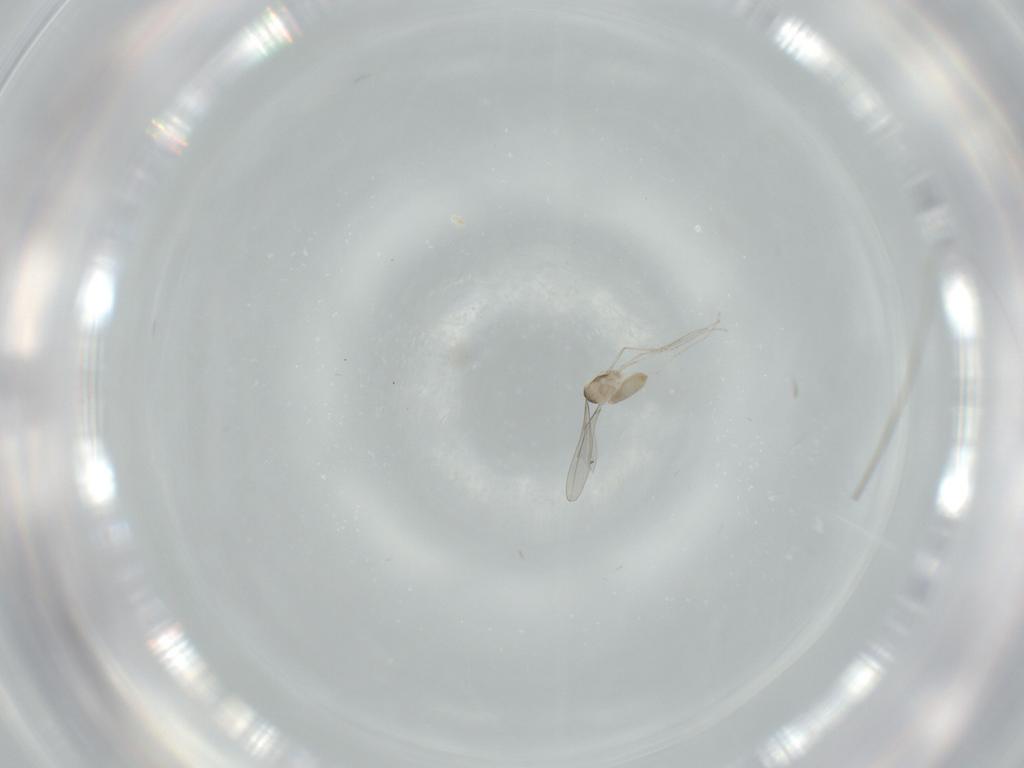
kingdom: Animalia
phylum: Arthropoda
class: Insecta
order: Diptera
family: Cecidomyiidae
